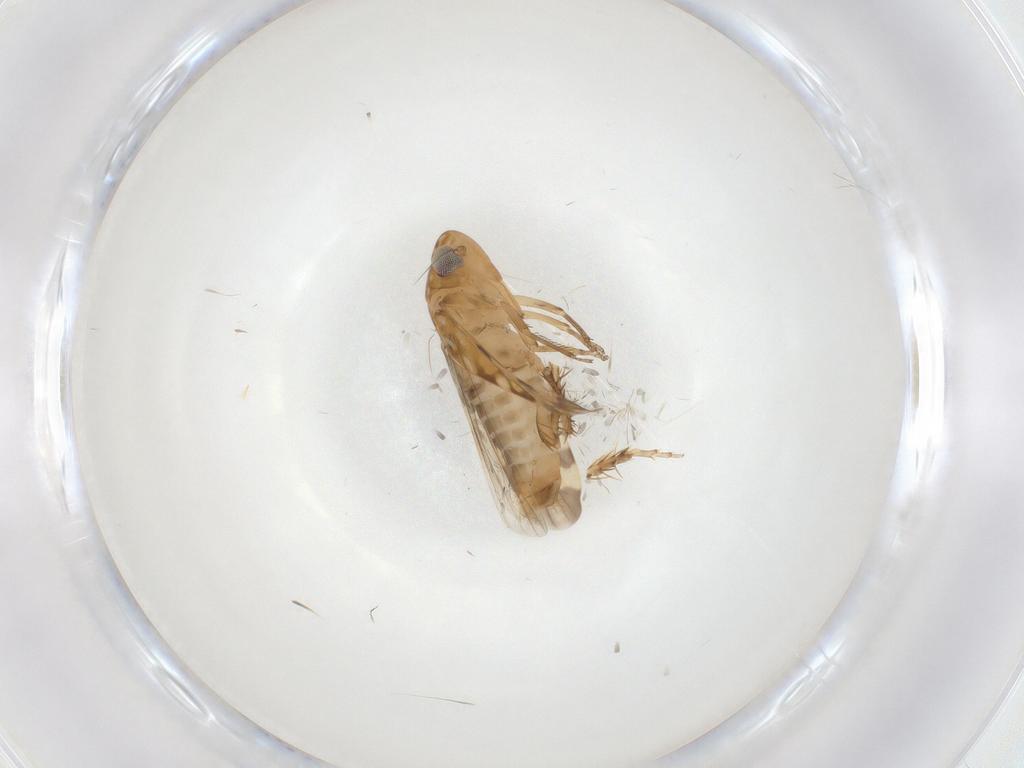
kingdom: Animalia
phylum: Arthropoda
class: Insecta
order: Hemiptera
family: Cicadellidae
